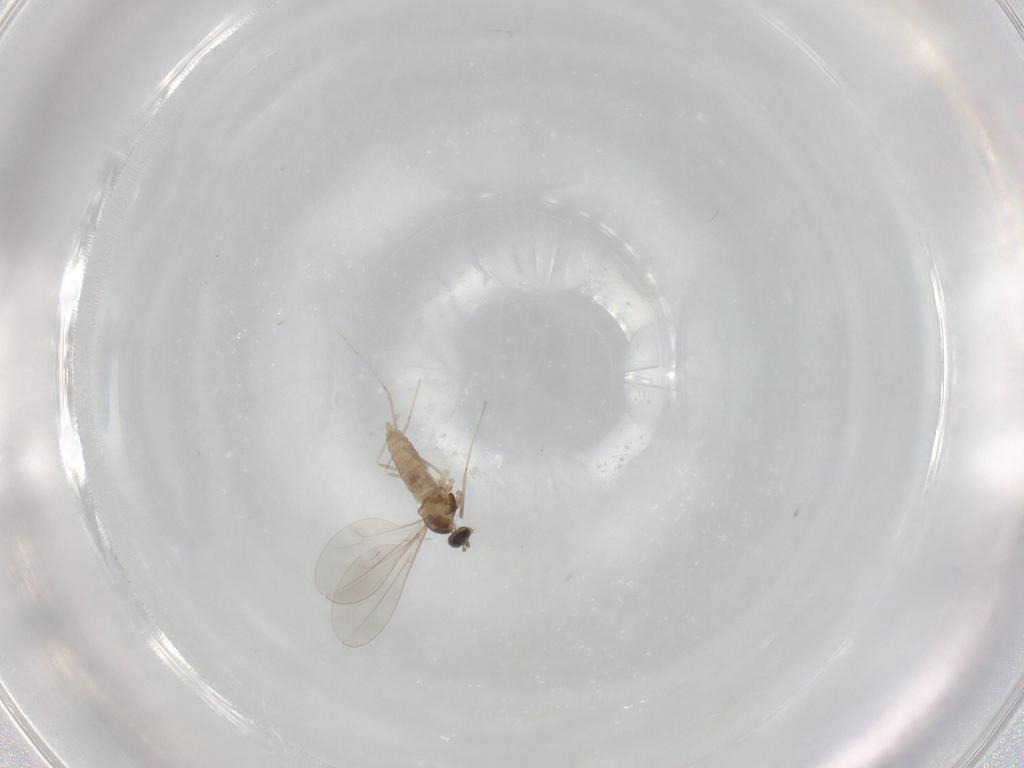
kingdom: Animalia
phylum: Arthropoda
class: Insecta
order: Diptera
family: Cecidomyiidae
